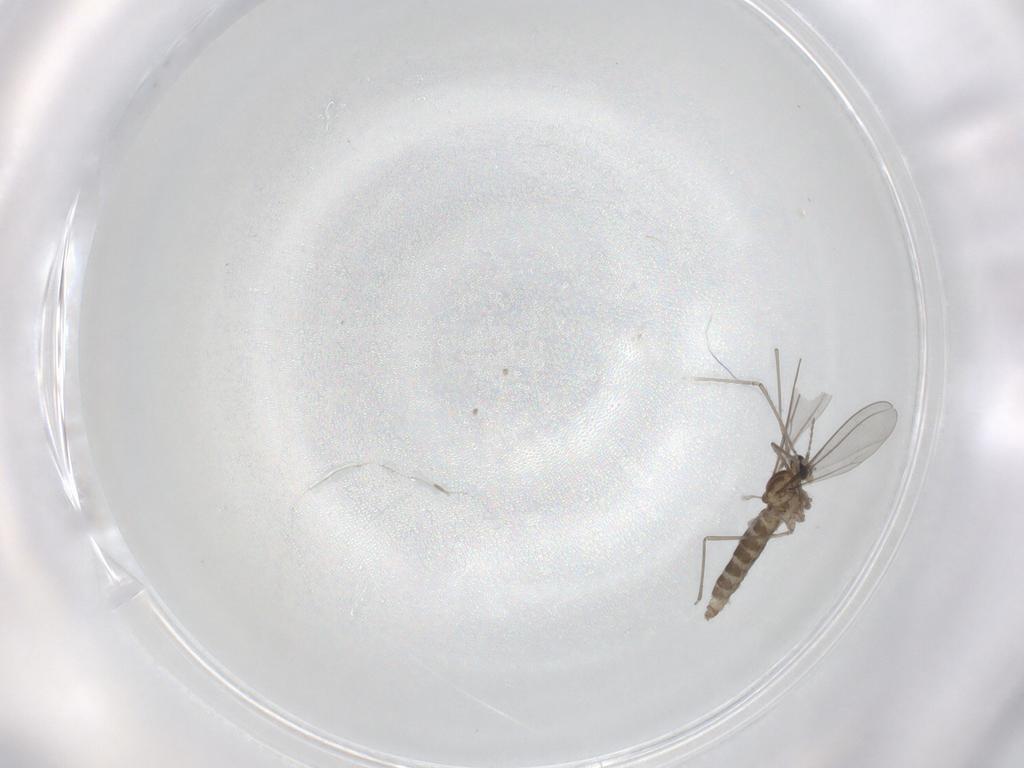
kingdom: Animalia
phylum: Arthropoda
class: Insecta
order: Diptera
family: Cecidomyiidae
